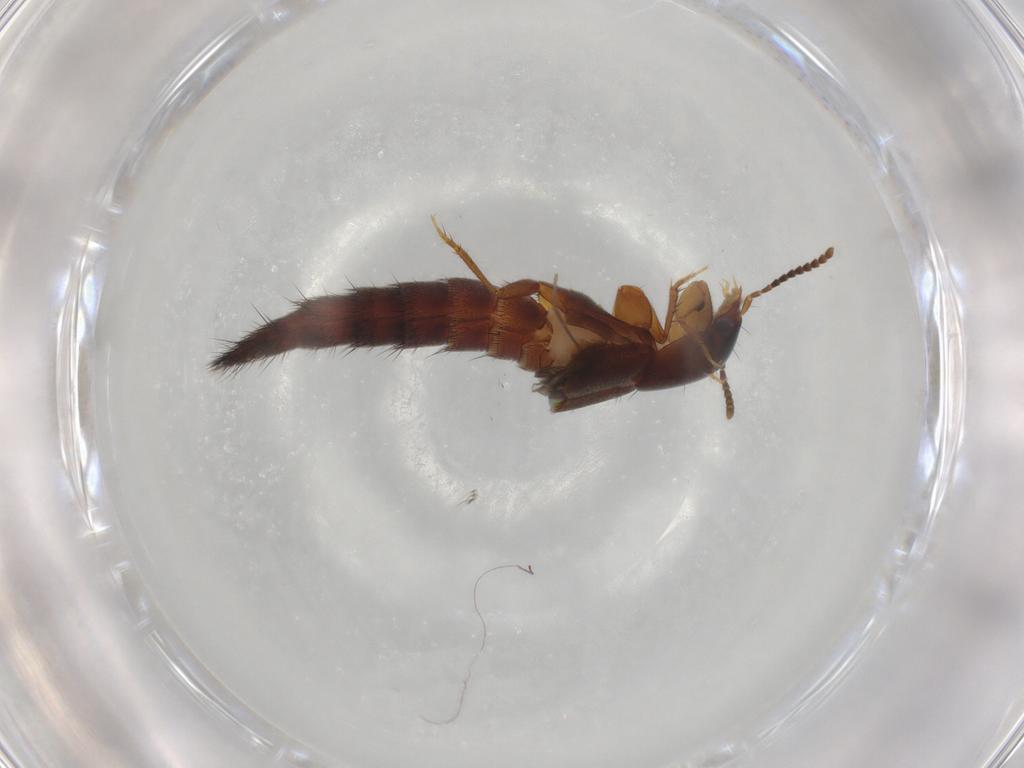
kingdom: Animalia
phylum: Arthropoda
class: Insecta
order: Coleoptera
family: Staphylinidae
